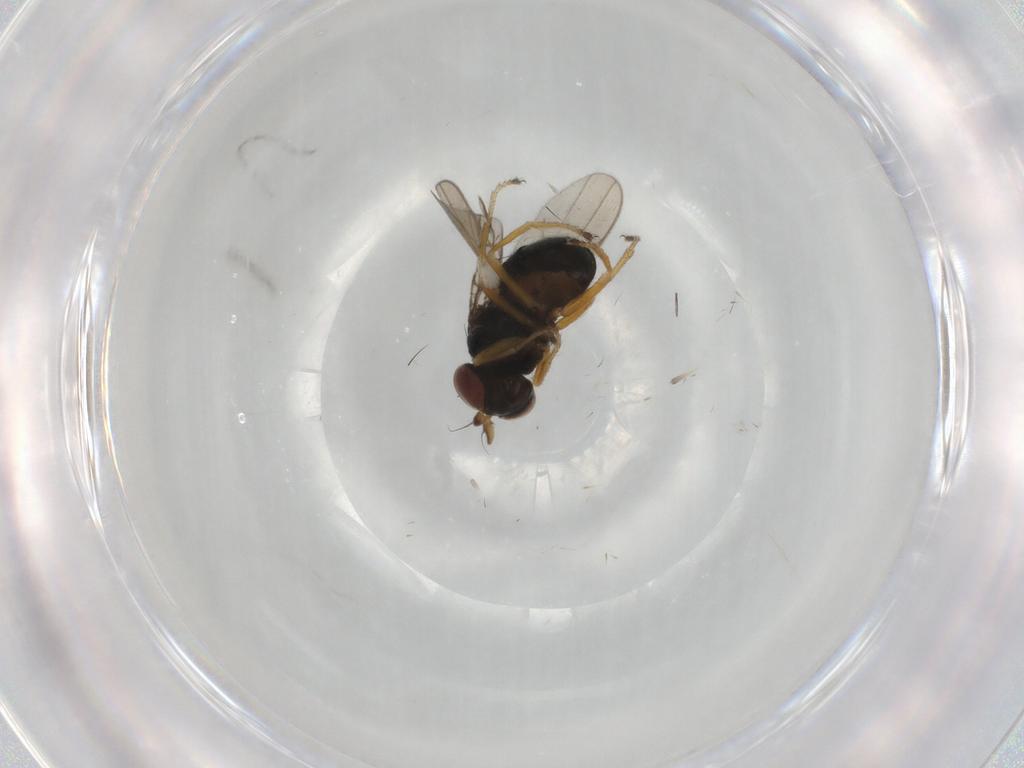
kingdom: Animalia
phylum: Arthropoda
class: Insecta
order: Diptera
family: Ephydridae
